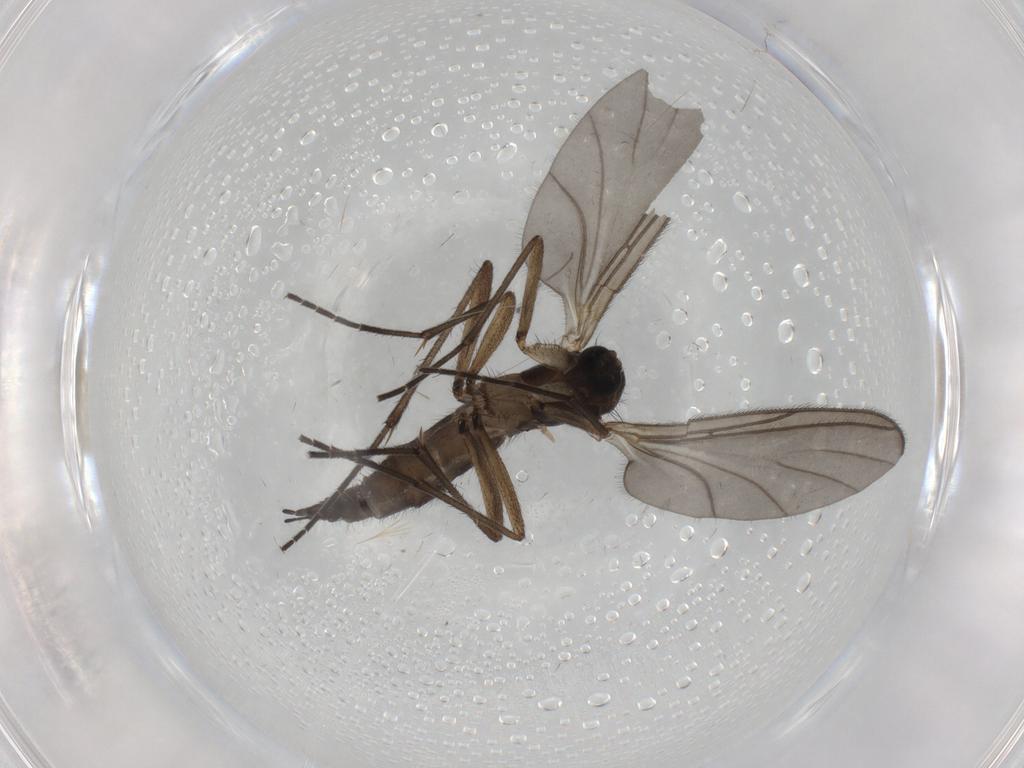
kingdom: Animalia
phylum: Arthropoda
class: Insecta
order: Diptera
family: Sciaridae
